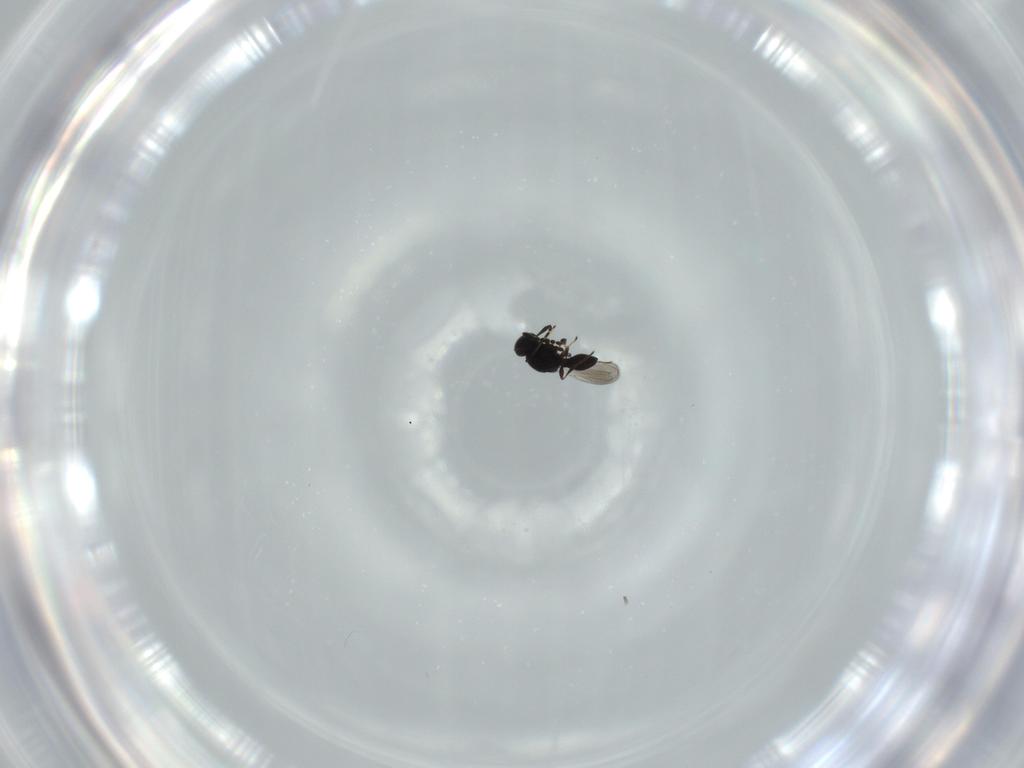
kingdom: Animalia
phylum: Arthropoda
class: Insecta
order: Hymenoptera
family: Platygastridae
